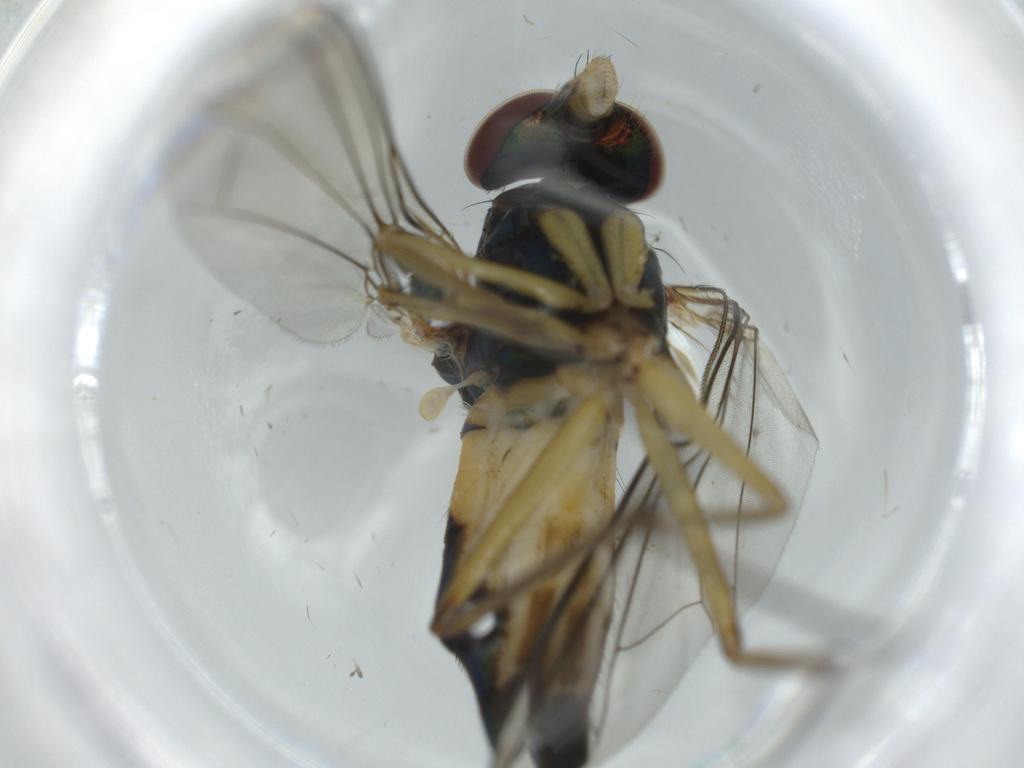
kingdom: Animalia
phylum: Arthropoda
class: Insecta
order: Diptera
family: Dolichopodidae
